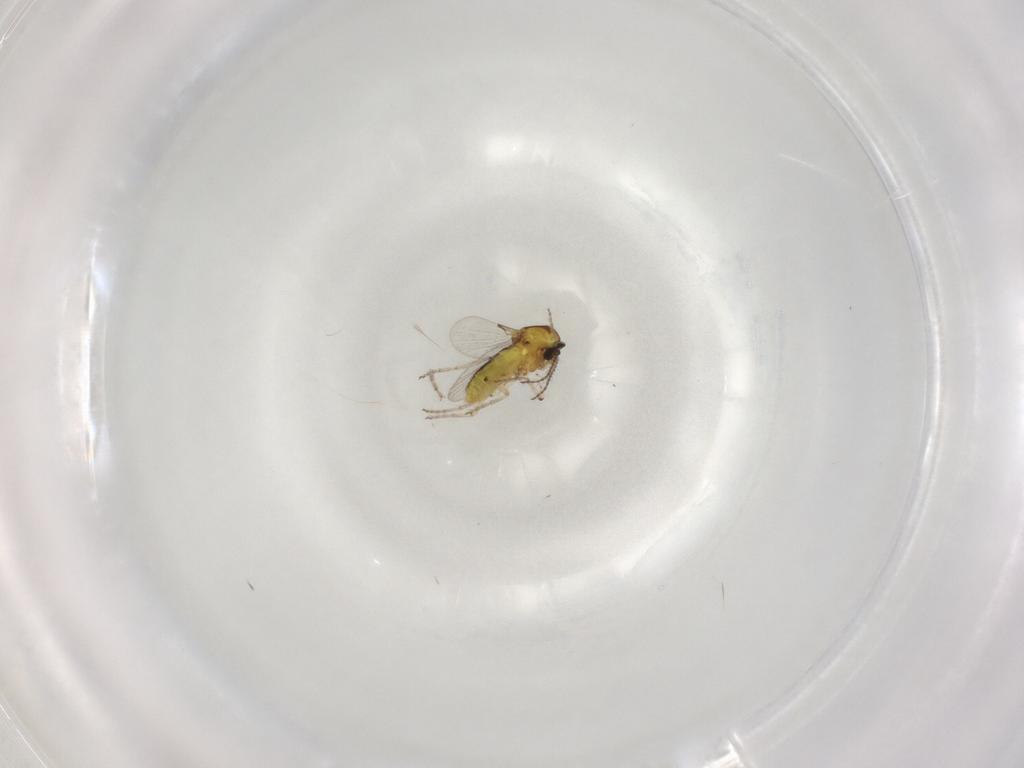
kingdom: Animalia
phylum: Arthropoda
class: Insecta
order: Diptera
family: Ceratopogonidae
